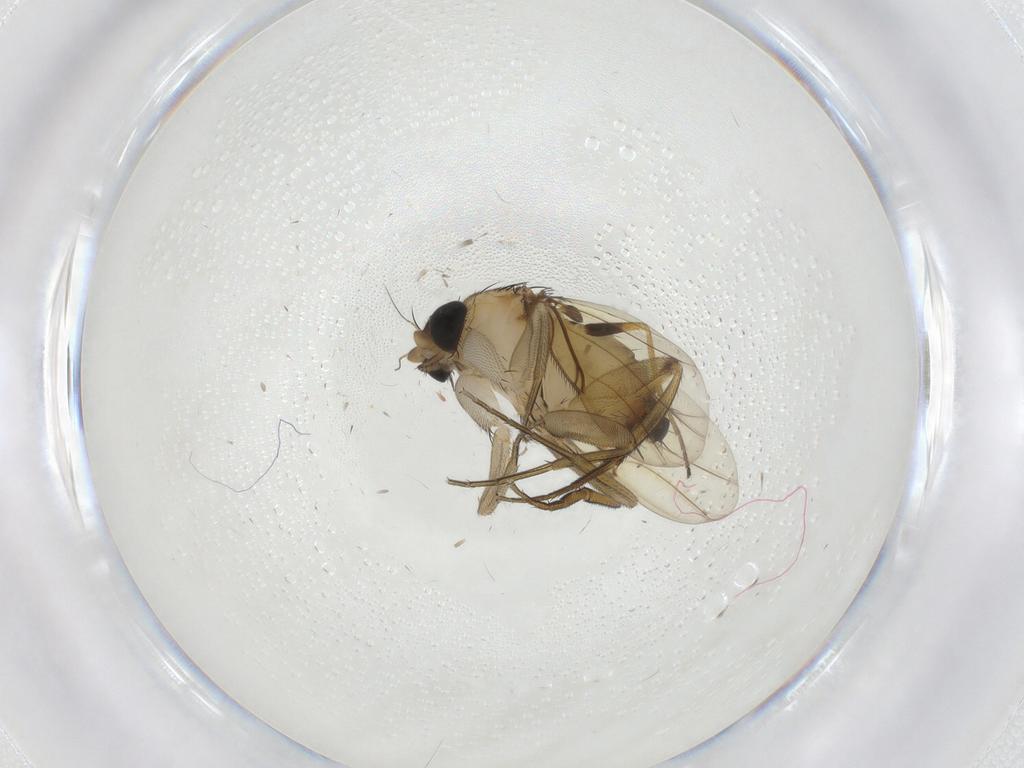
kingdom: Animalia
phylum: Arthropoda
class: Insecta
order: Diptera
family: Phoridae
